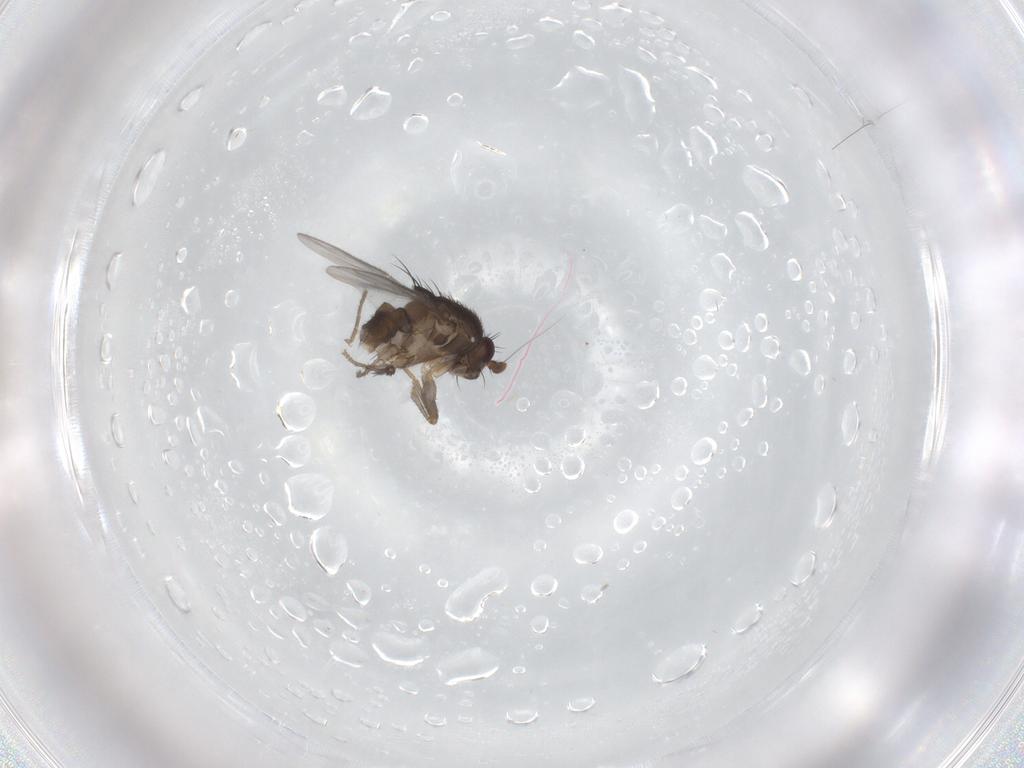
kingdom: Animalia
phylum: Arthropoda
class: Insecta
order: Diptera
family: Sphaeroceridae
